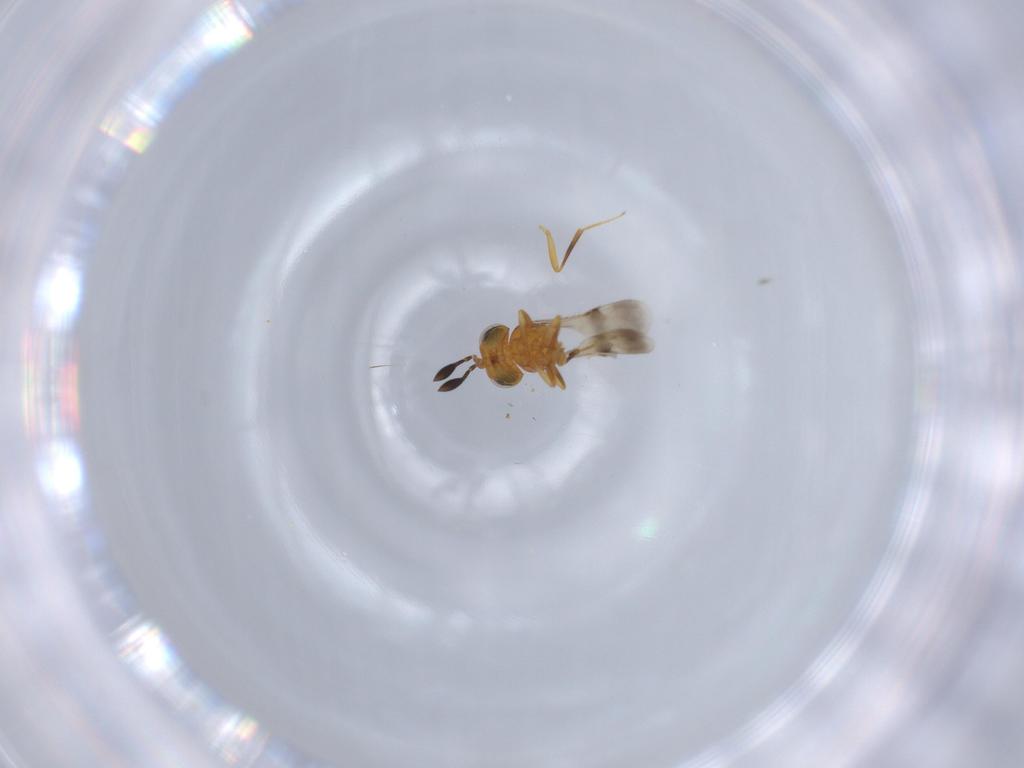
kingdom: Animalia
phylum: Arthropoda
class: Insecta
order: Hymenoptera
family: Scelionidae
